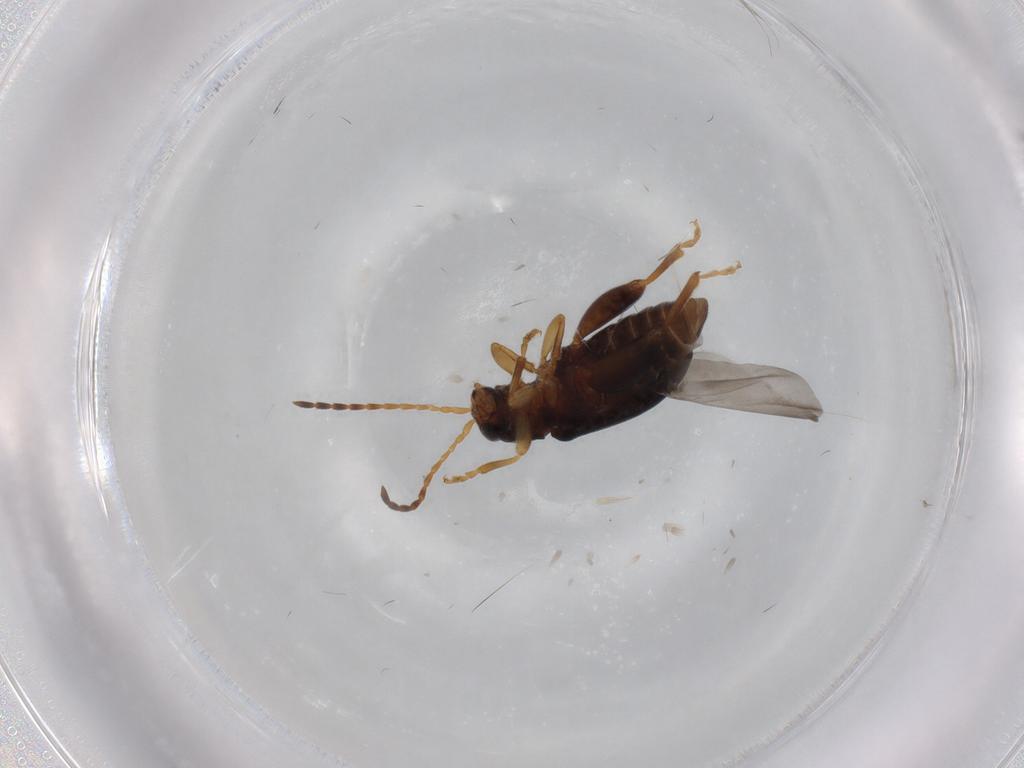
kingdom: Animalia
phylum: Arthropoda
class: Insecta
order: Coleoptera
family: Chrysomelidae
